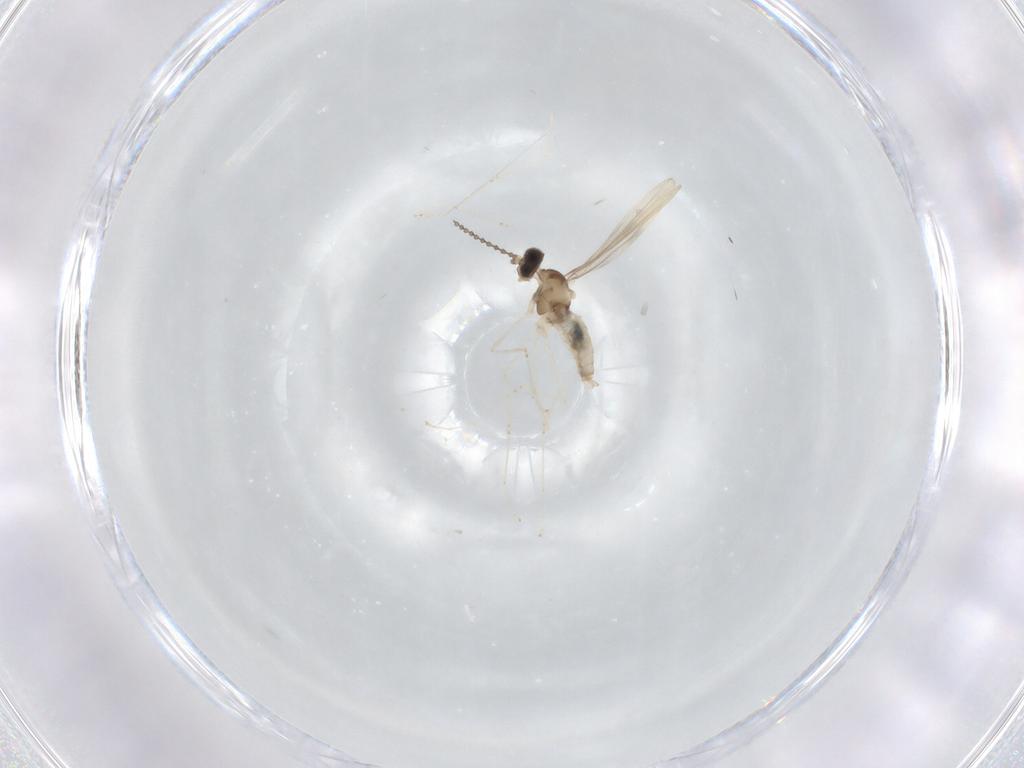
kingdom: Animalia
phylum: Arthropoda
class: Insecta
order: Diptera
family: Cecidomyiidae
